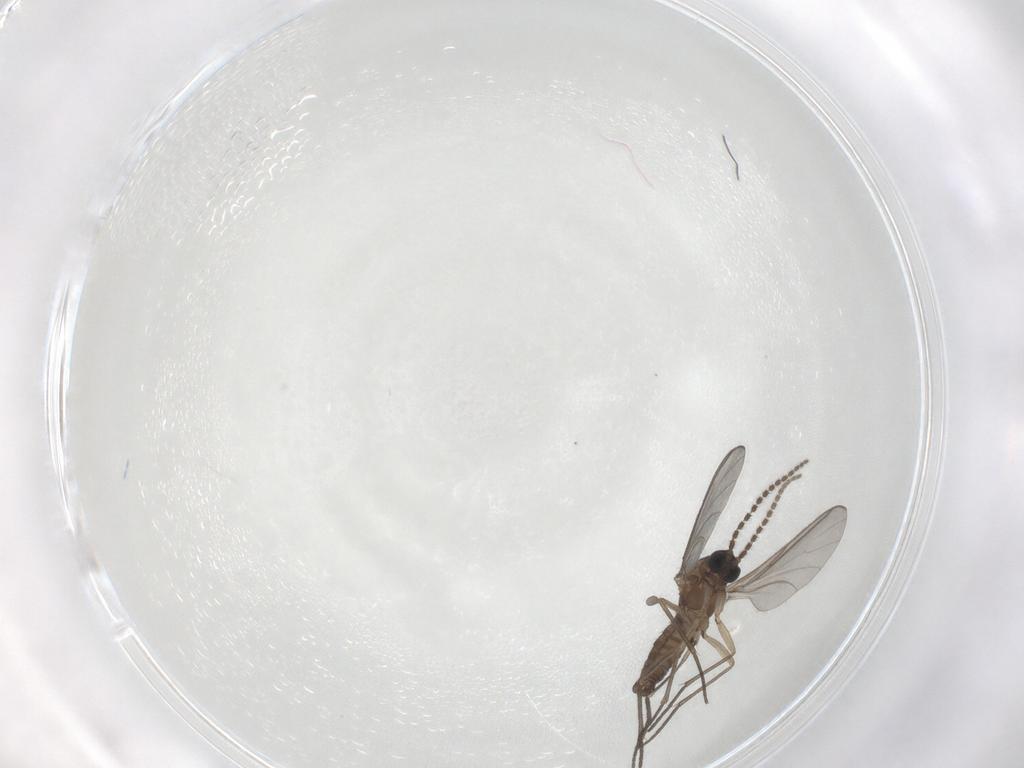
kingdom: Animalia
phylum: Arthropoda
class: Insecta
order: Diptera
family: Sciaridae
